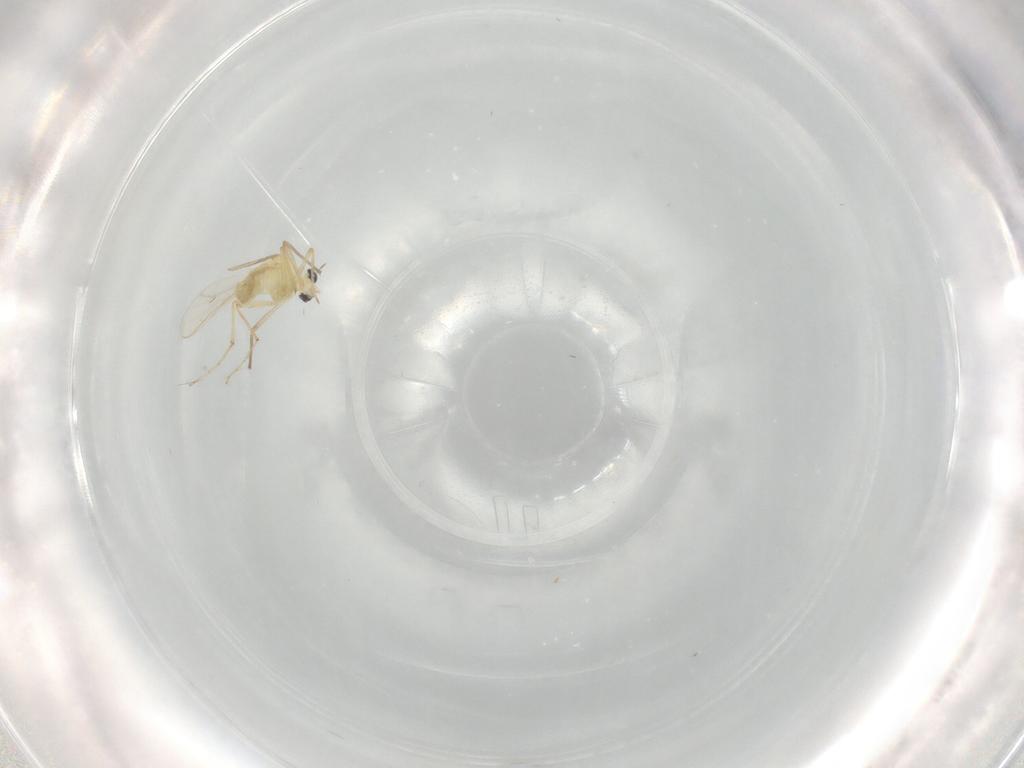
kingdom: Animalia
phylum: Arthropoda
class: Insecta
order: Diptera
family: Chironomidae
